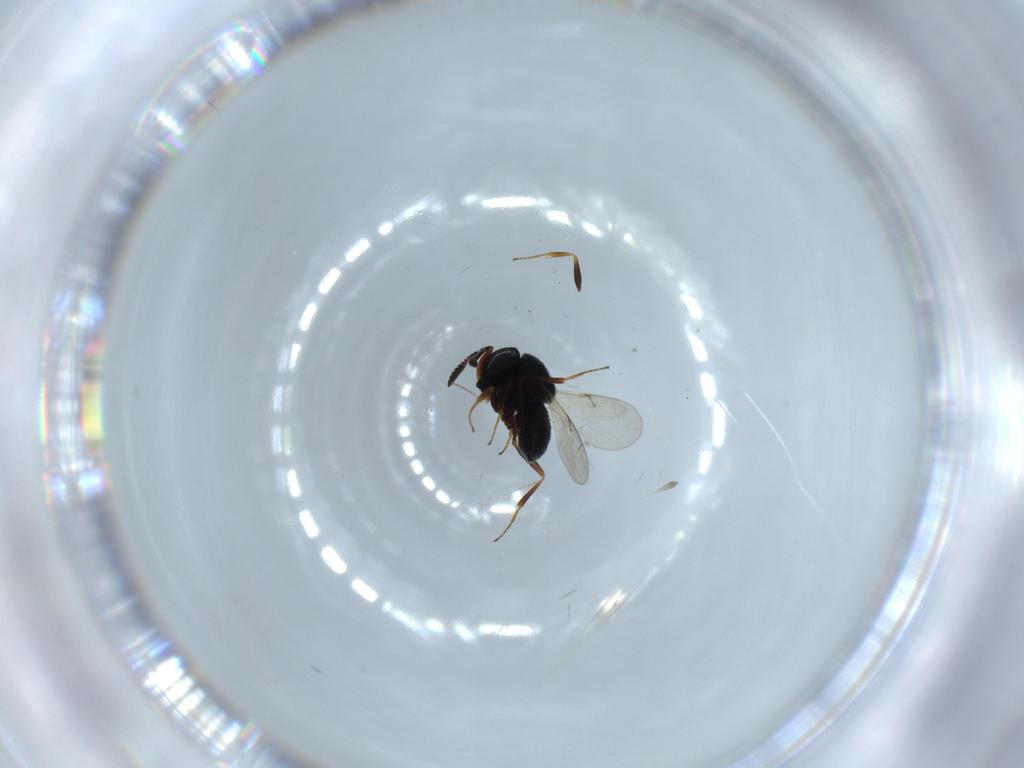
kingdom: Animalia
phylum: Arthropoda
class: Insecta
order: Hymenoptera
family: Scelionidae
